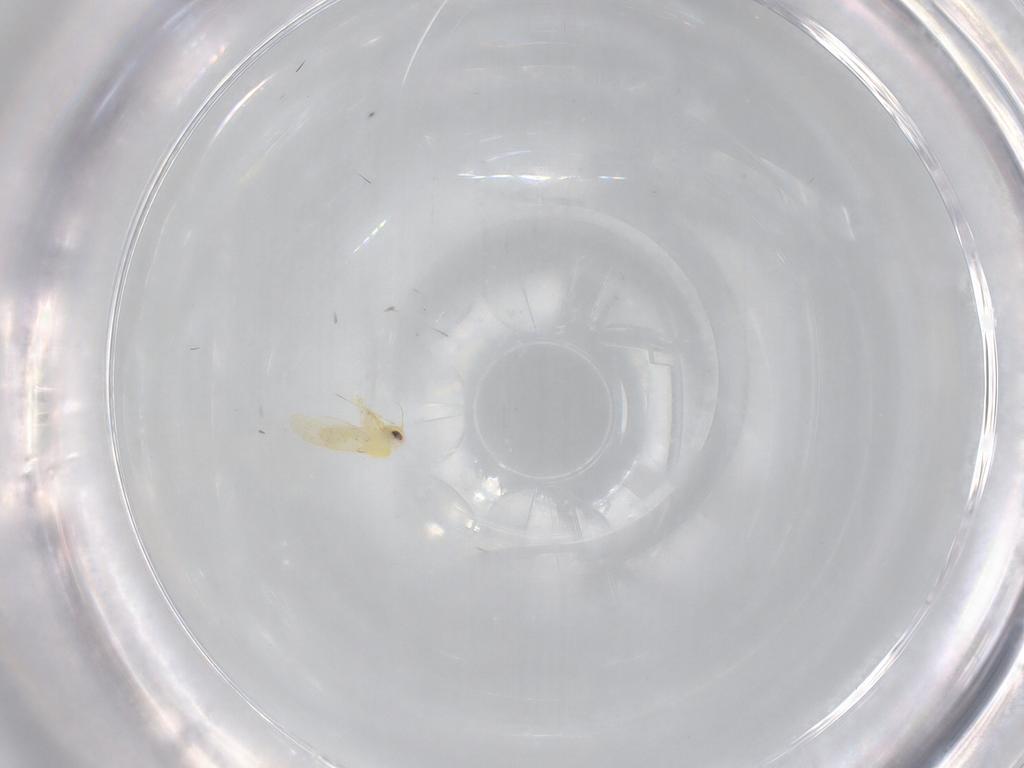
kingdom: Animalia
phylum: Arthropoda
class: Insecta
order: Hemiptera
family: Aleyrodidae
